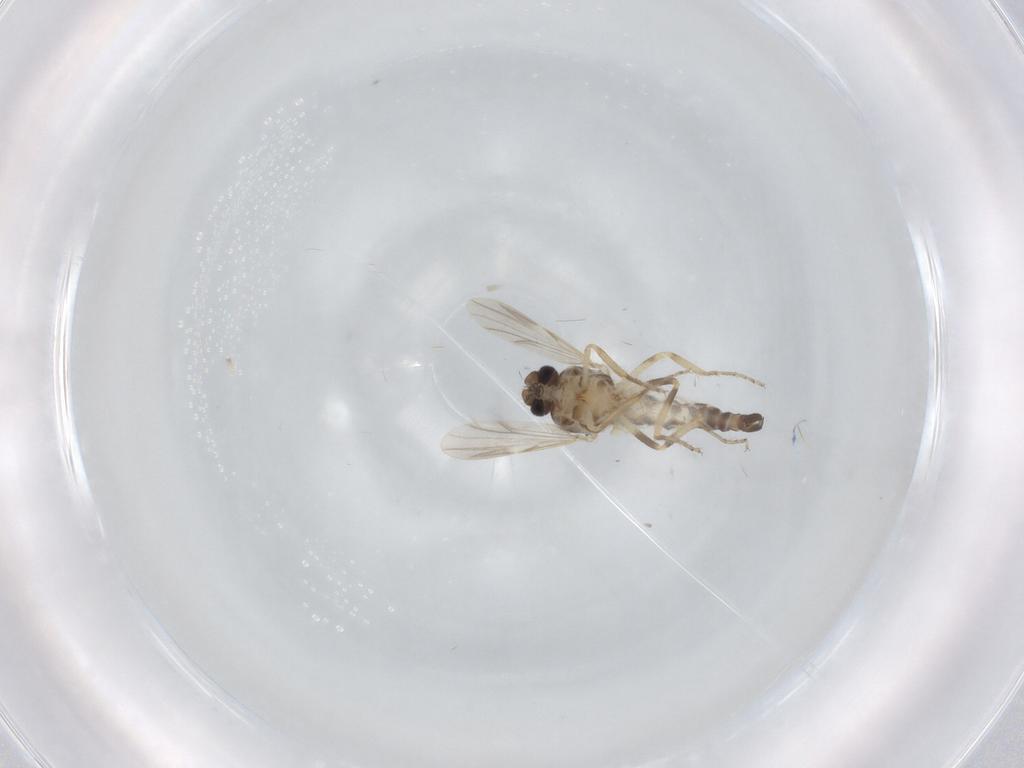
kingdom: Animalia
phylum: Arthropoda
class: Insecta
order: Diptera
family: Ceratopogonidae
